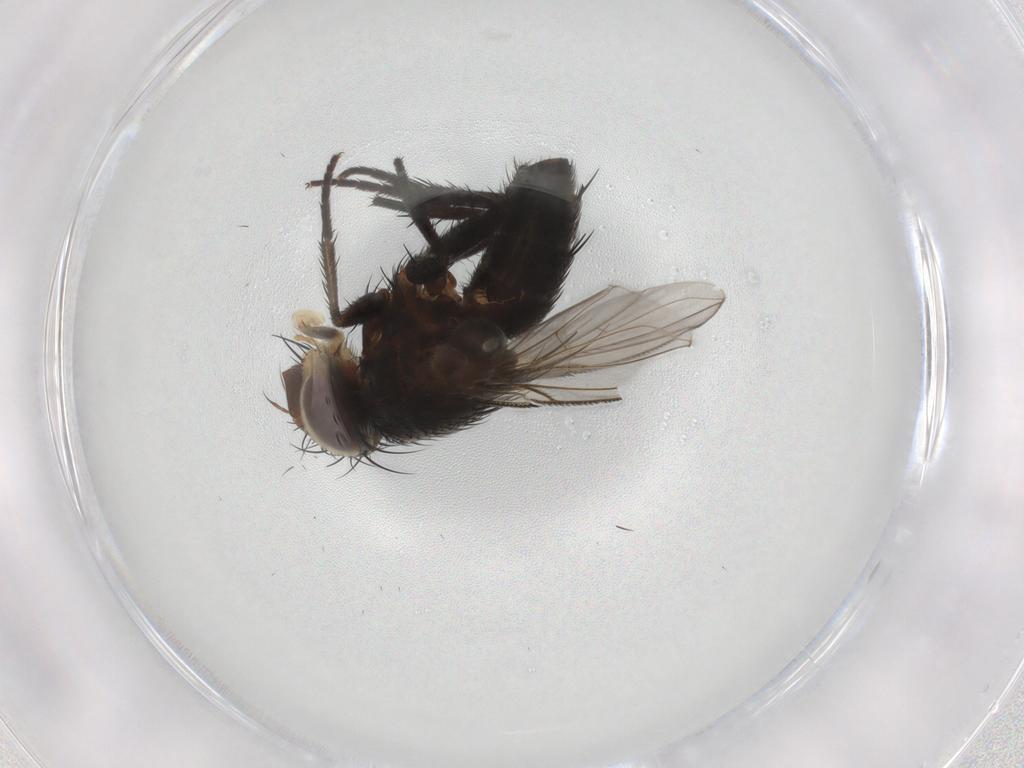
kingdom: Animalia
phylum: Arthropoda
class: Insecta
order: Diptera
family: Tachinidae
